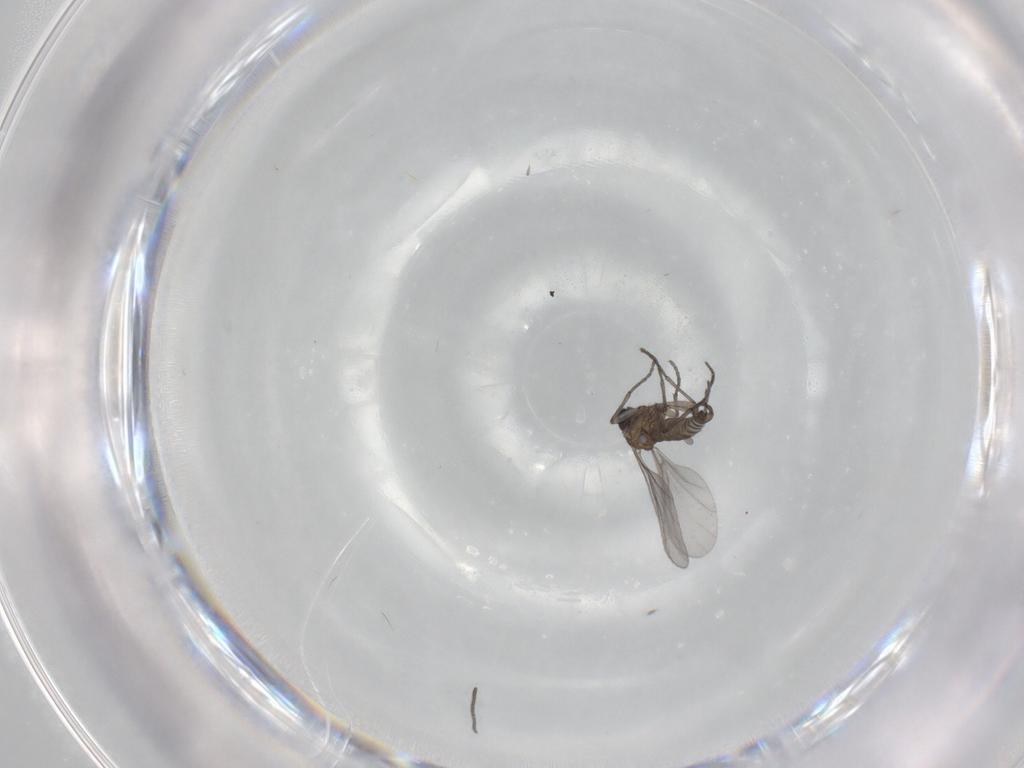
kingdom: Animalia
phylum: Arthropoda
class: Insecta
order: Diptera
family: Sciaridae
